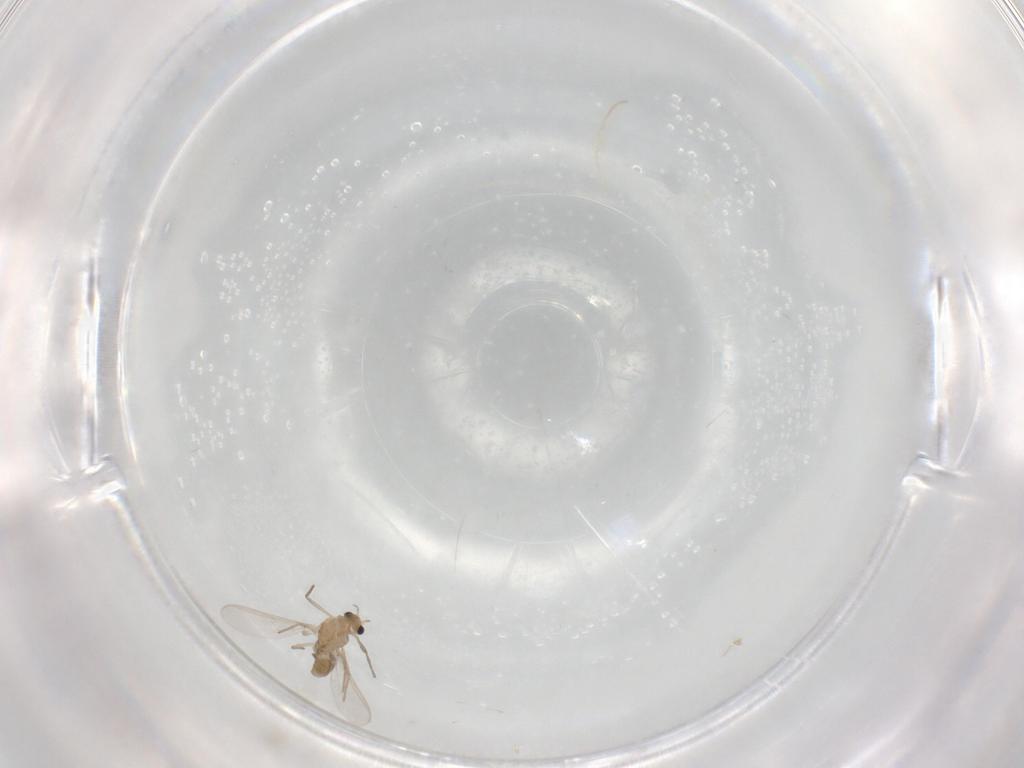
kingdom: Animalia
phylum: Arthropoda
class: Insecta
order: Diptera
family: Chironomidae
